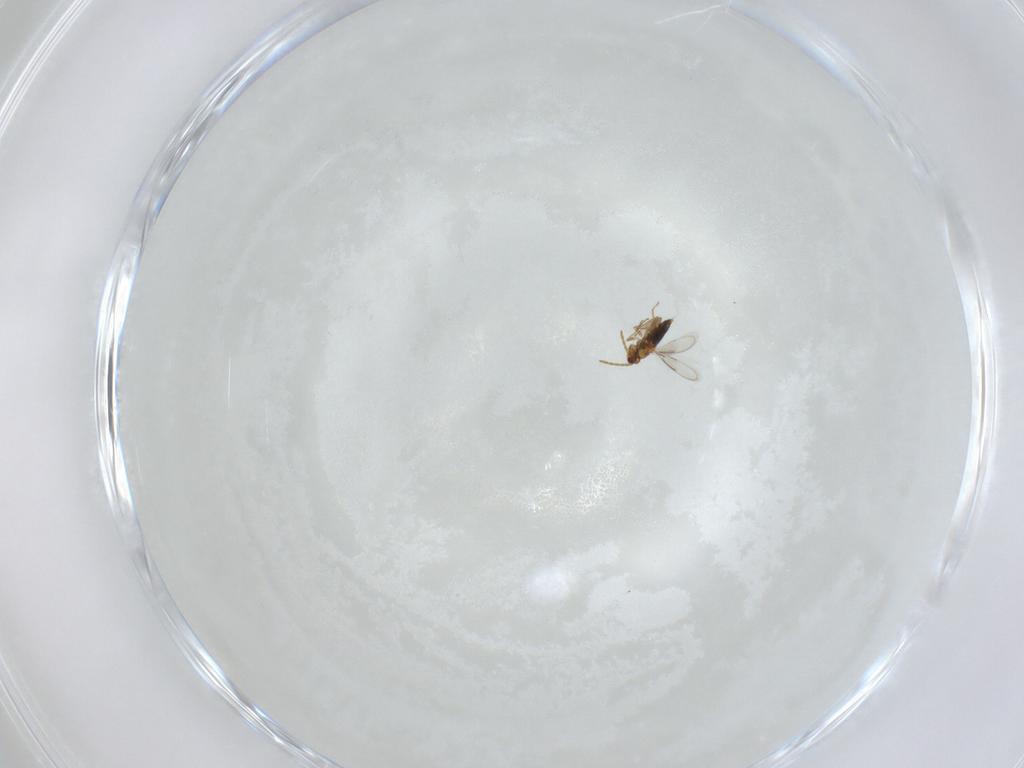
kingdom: Animalia
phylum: Arthropoda
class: Insecta
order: Hymenoptera
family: Aphelinidae
